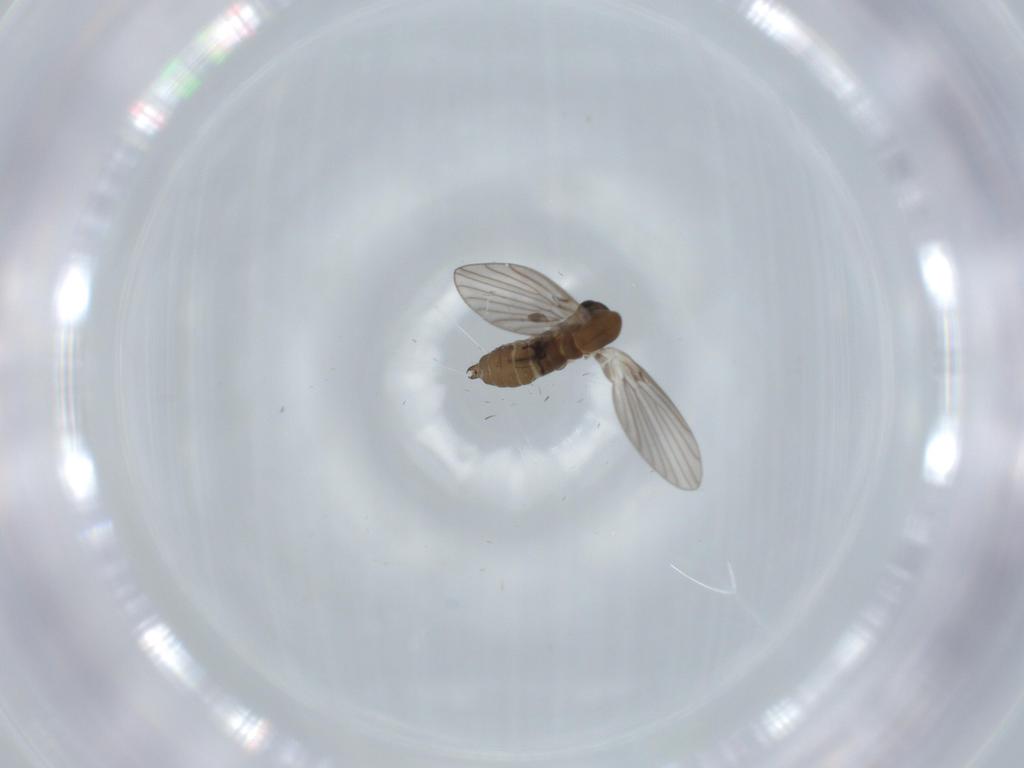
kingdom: Animalia
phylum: Arthropoda
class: Insecta
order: Diptera
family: Psychodidae
